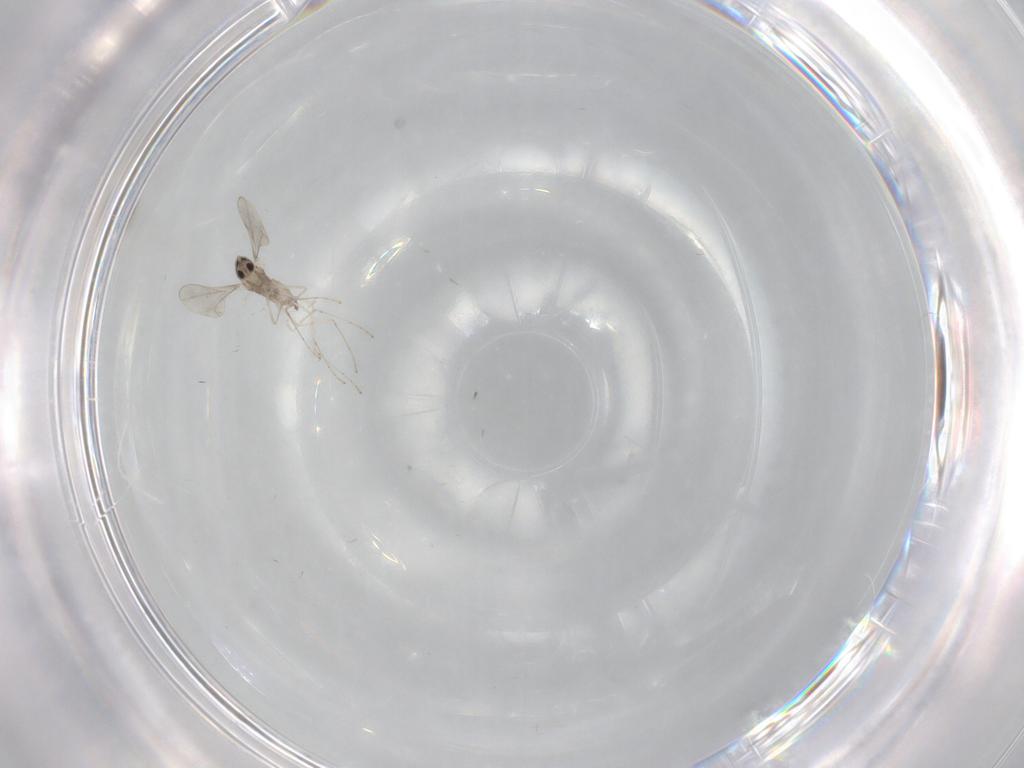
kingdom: Animalia
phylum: Arthropoda
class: Insecta
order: Diptera
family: Cecidomyiidae
